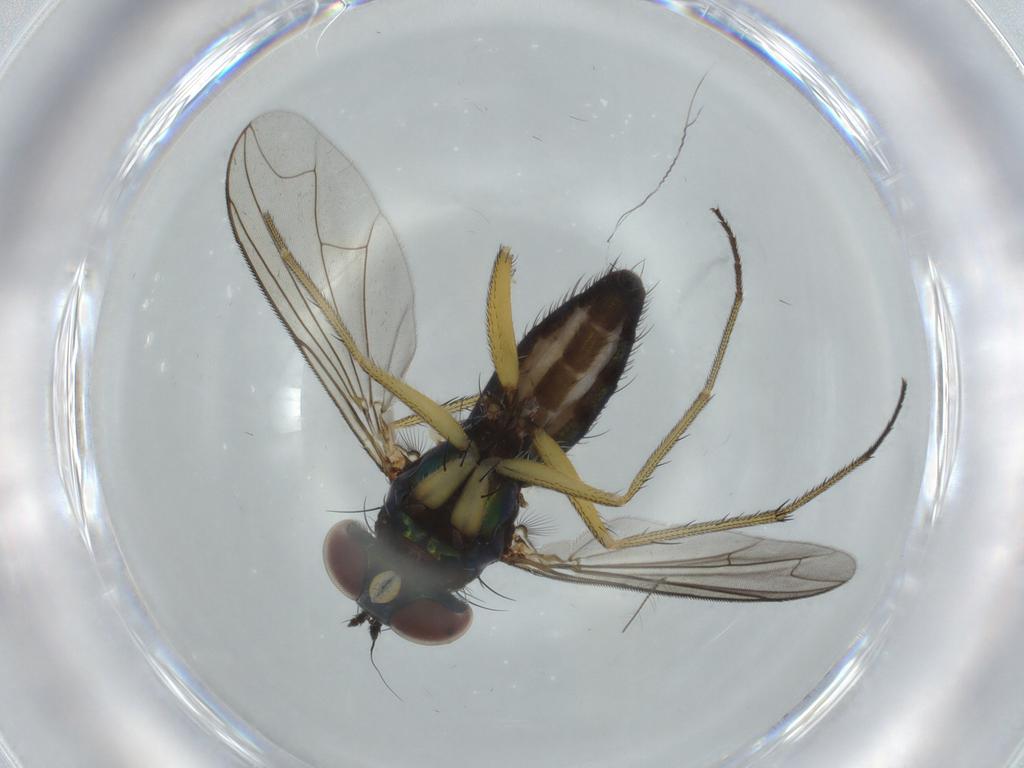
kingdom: Animalia
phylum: Arthropoda
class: Insecta
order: Diptera
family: Dolichopodidae
